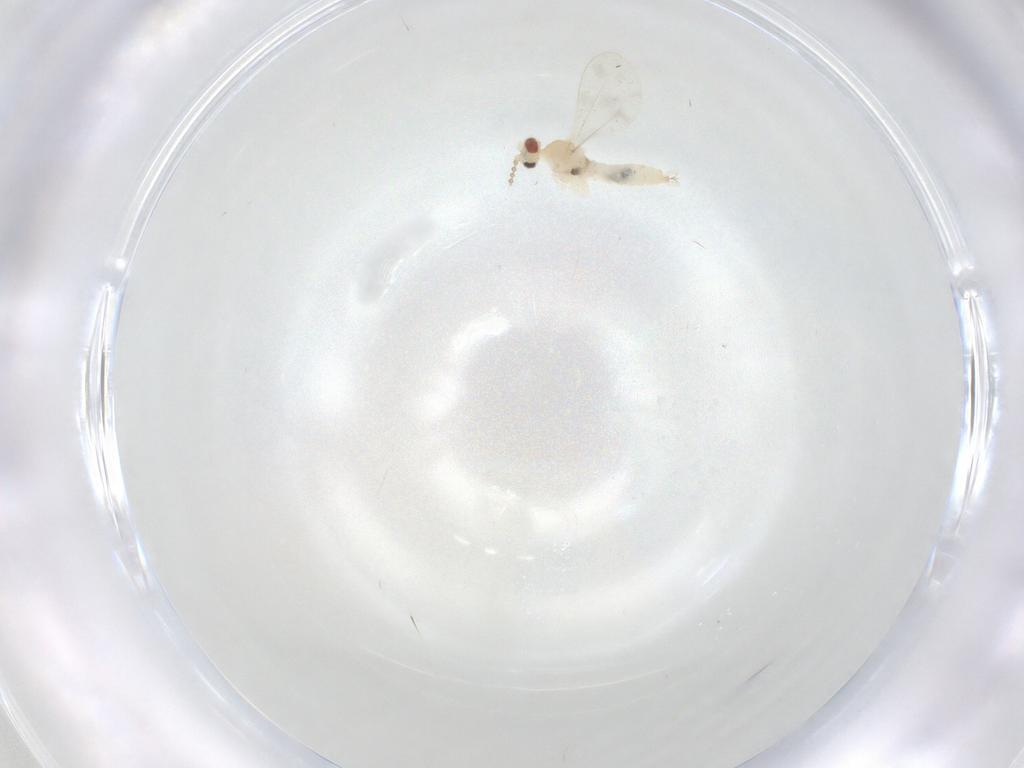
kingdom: Animalia
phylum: Arthropoda
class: Insecta
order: Diptera
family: Cecidomyiidae
